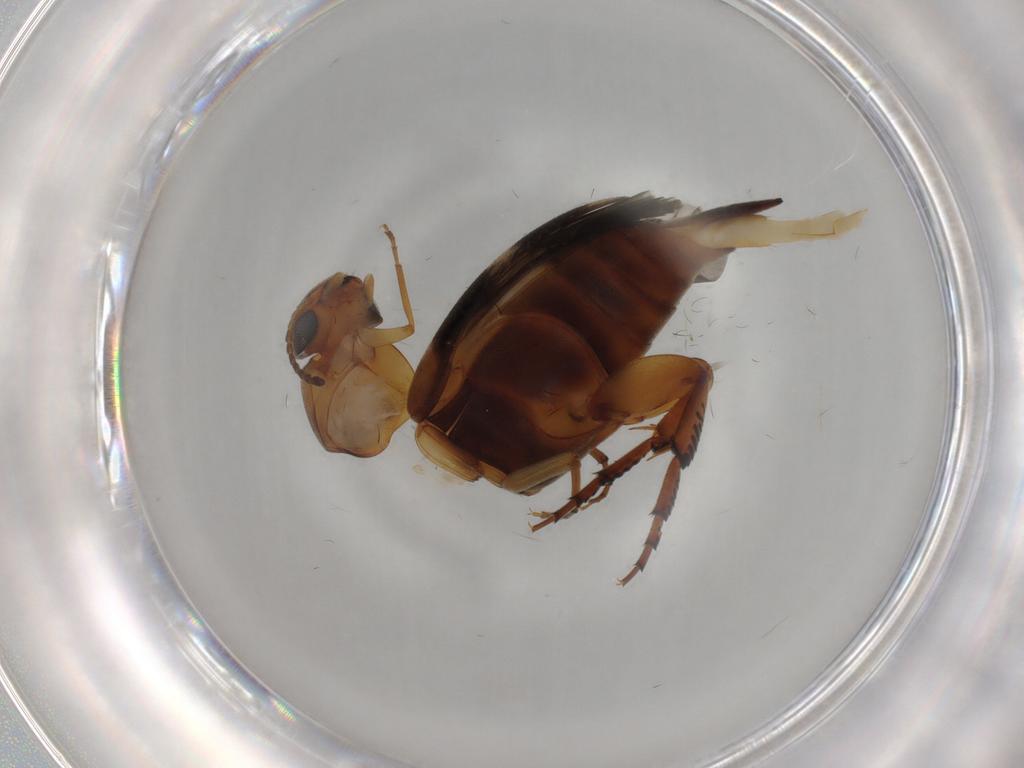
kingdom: Animalia
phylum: Arthropoda
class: Insecta
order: Coleoptera
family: Mordellidae
